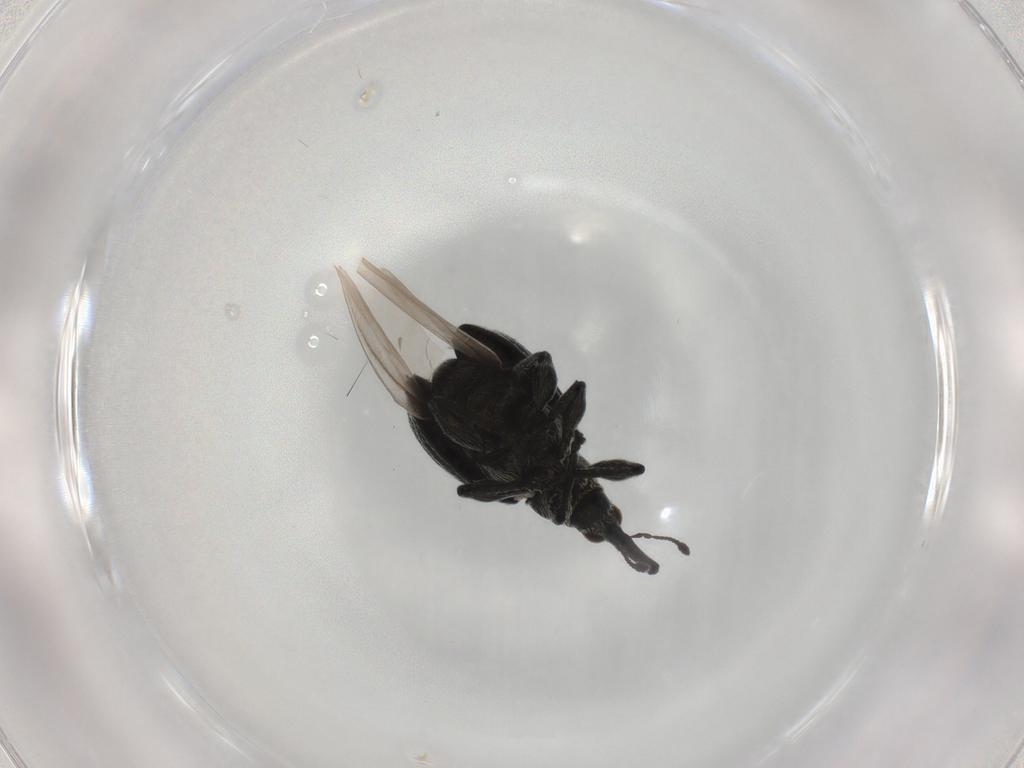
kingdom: Animalia
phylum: Arthropoda
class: Insecta
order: Coleoptera
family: Brentidae
